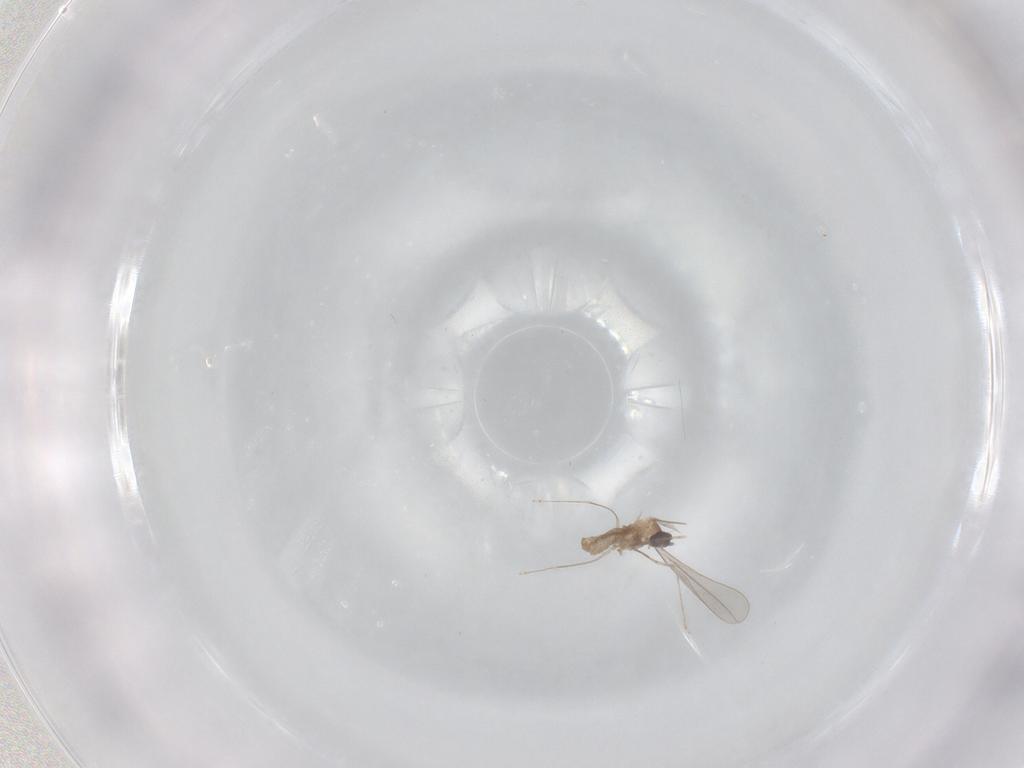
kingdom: Animalia
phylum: Arthropoda
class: Insecta
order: Diptera
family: Cecidomyiidae
